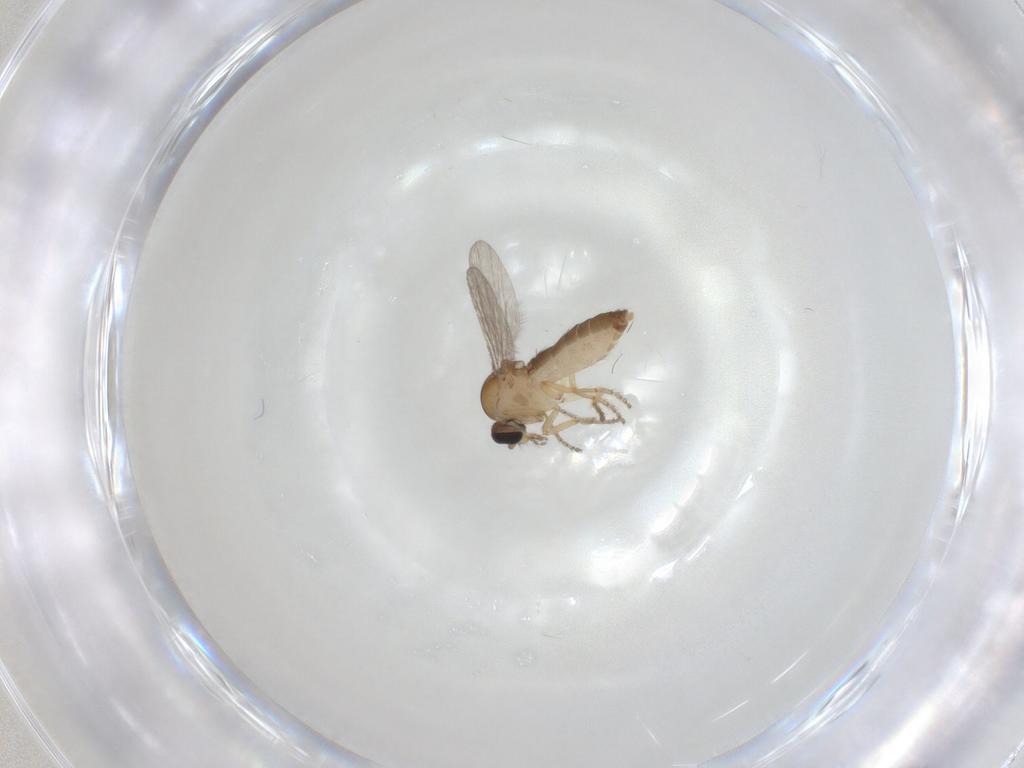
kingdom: Animalia
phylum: Arthropoda
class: Insecta
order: Diptera
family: Ceratopogonidae
